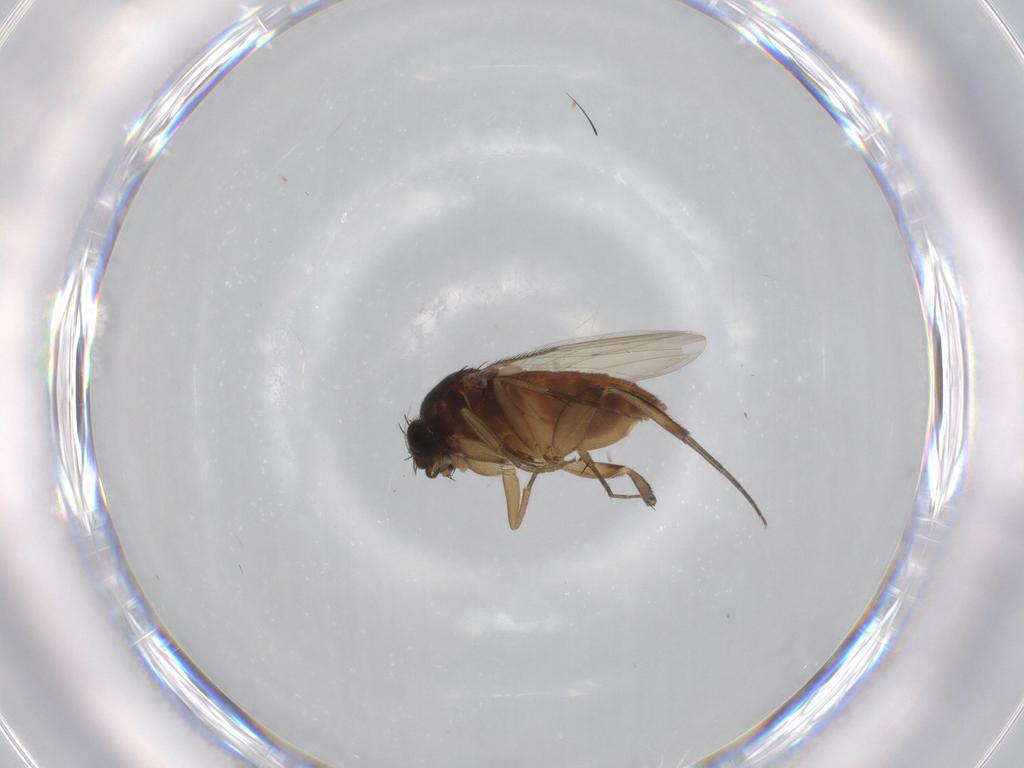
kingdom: Animalia
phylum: Arthropoda
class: Insecta
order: Diptera
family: Phoridae
